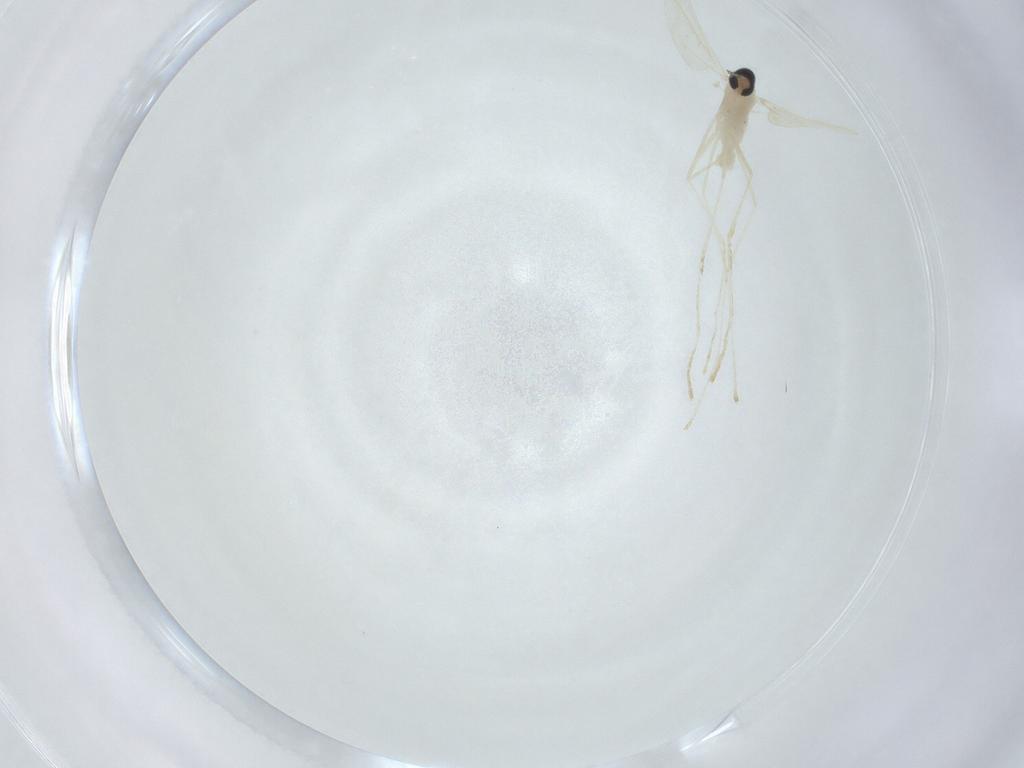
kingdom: Animalia
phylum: Arthropoda
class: Insecta
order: Diptera
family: Cecidomyiidae
